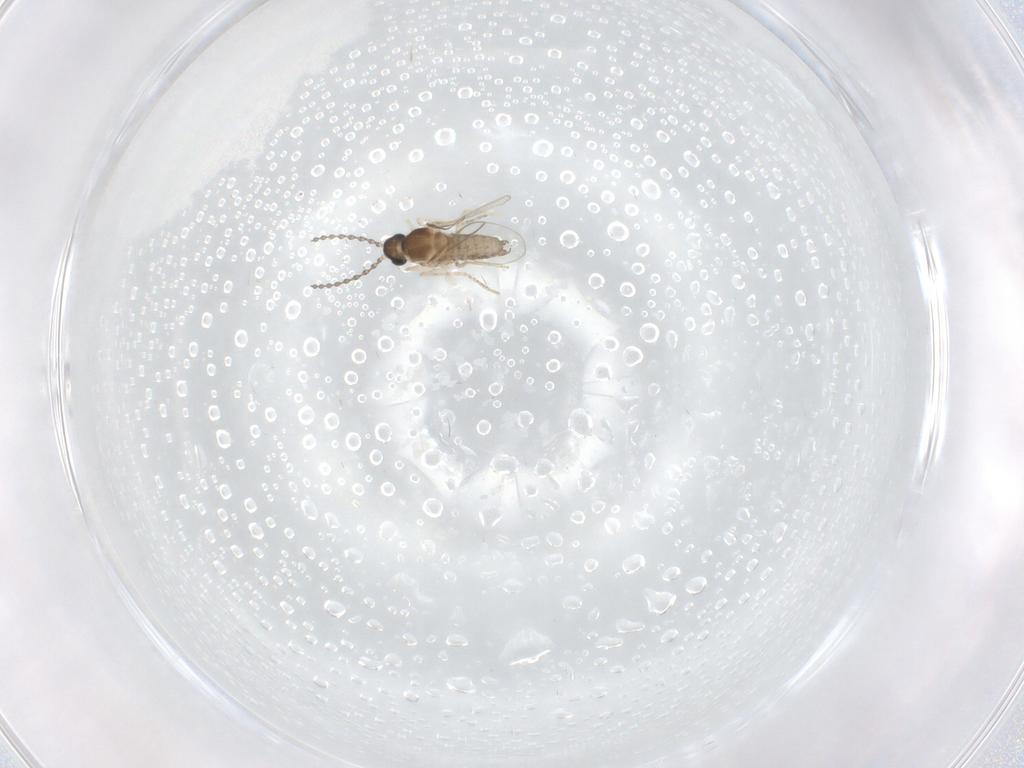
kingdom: Animalia
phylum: Arthropoda
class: Insecta
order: Diptera
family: Cecidomyiidae
